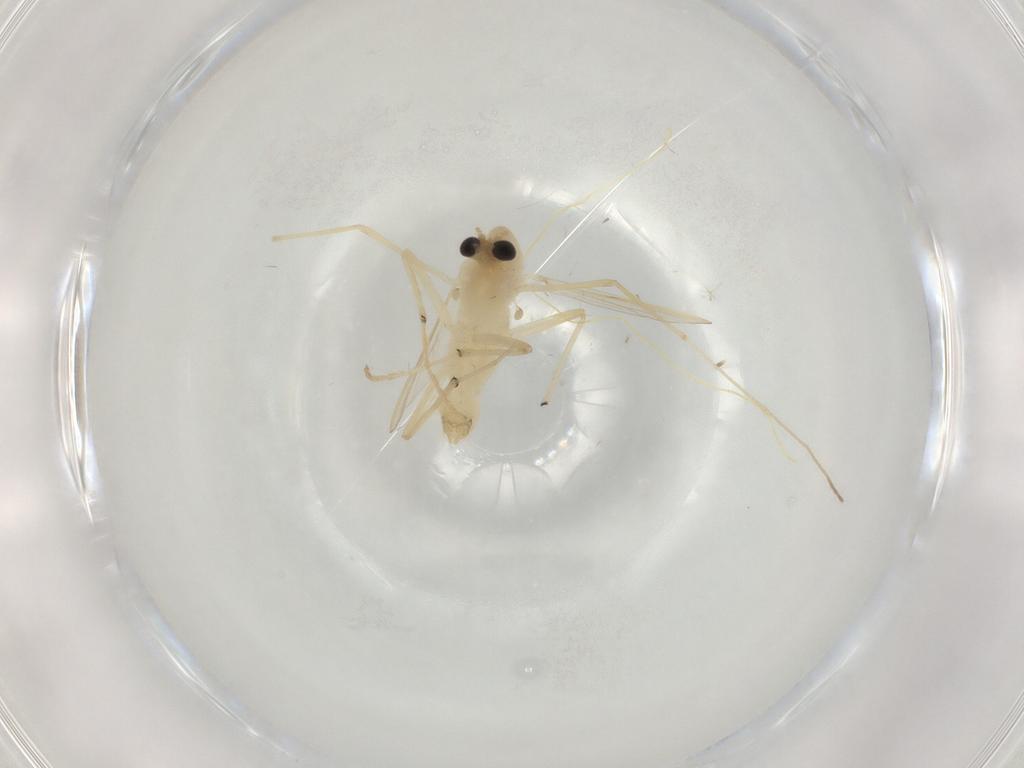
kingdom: Animalia
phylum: Arthropoda
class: Insecta
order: Diptera
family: Chironomidae
